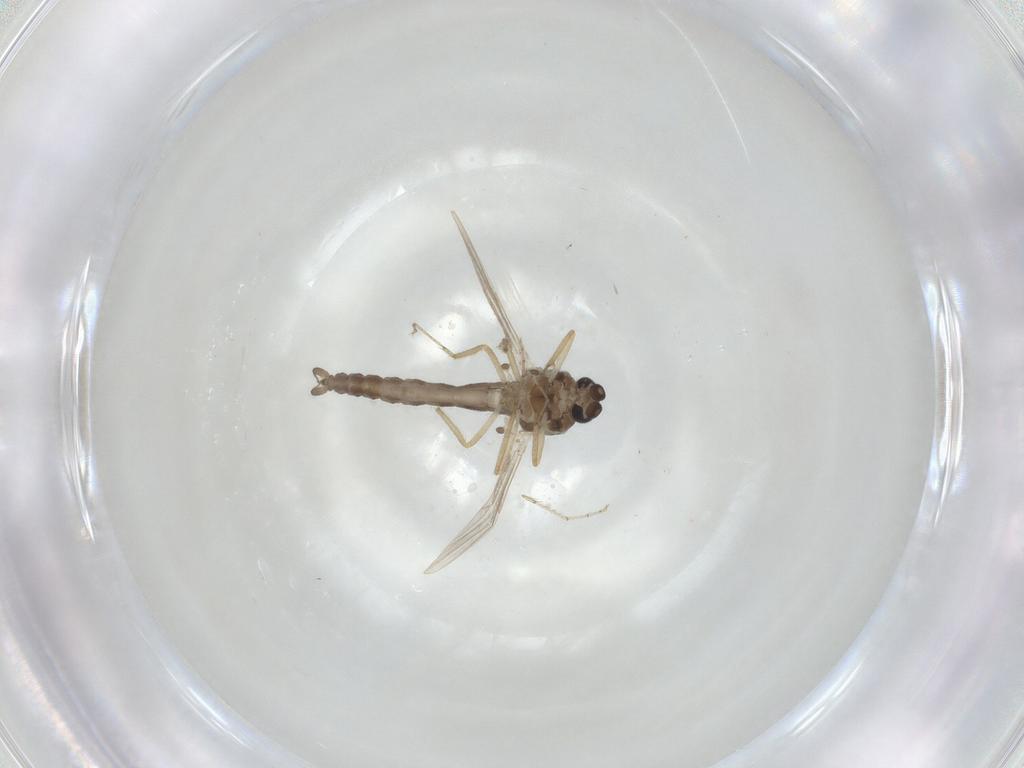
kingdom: Animalia
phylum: Arthropoda
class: Insecta
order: Diptera
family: Ceratopogonidae
